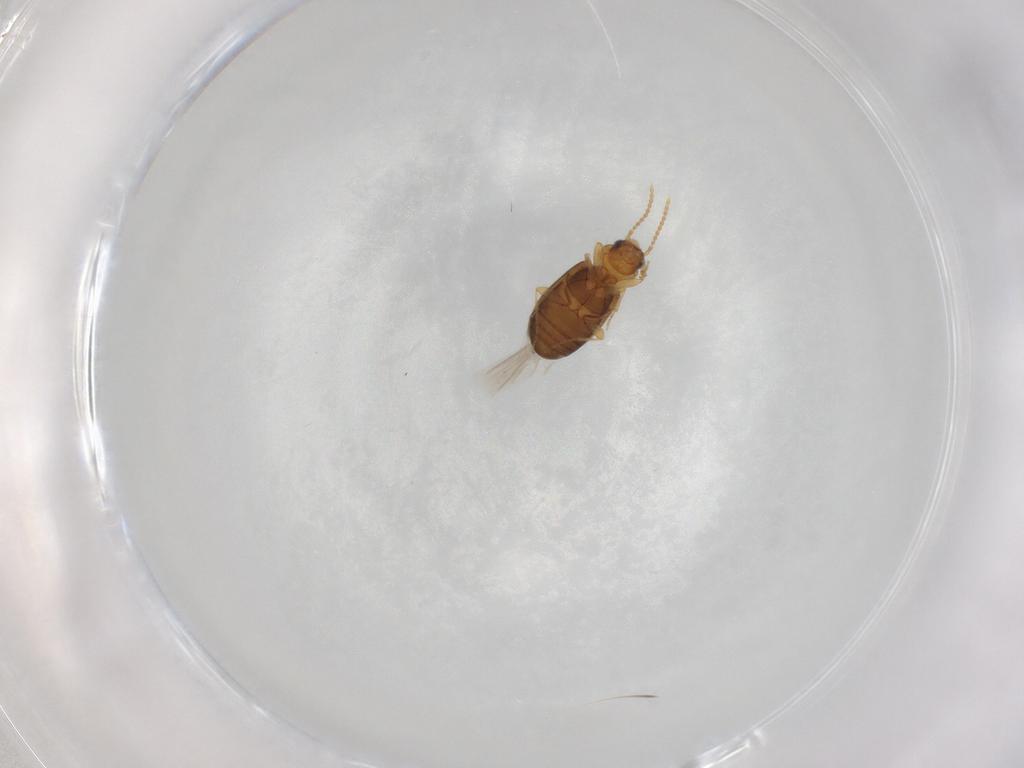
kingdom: Animalia
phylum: Arthropoda
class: Insecta
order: Coleoptera
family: Carabidae
